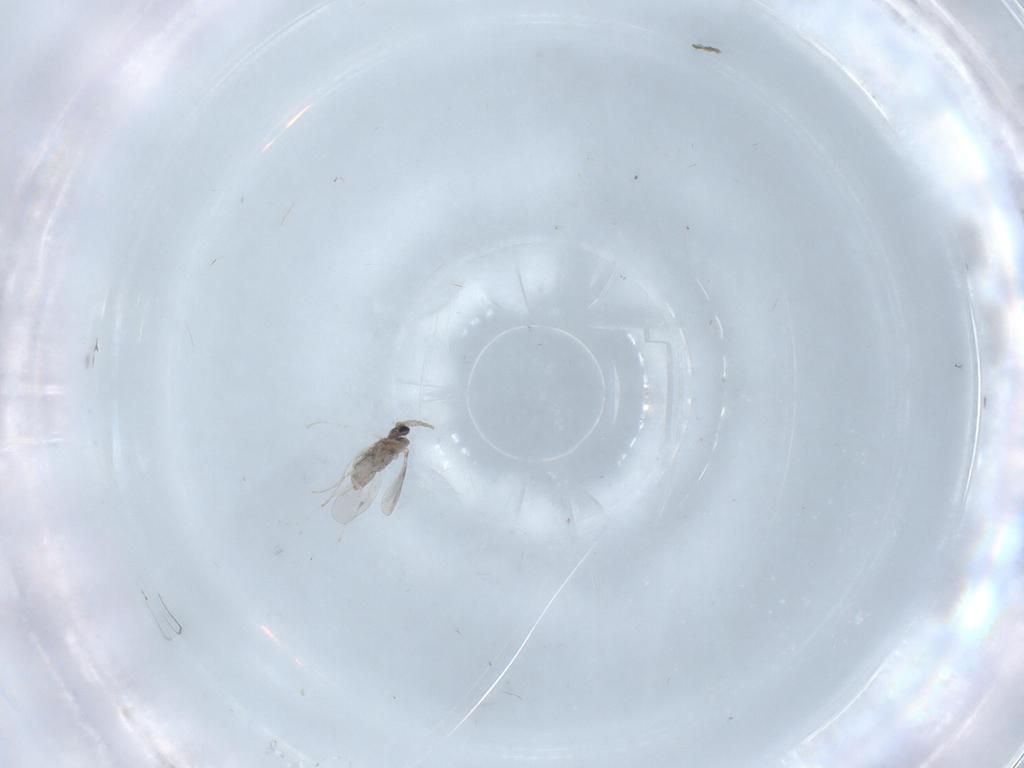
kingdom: Animalia
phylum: Arthropoda
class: Insecta
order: Diptera
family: Cecidomyiidae
